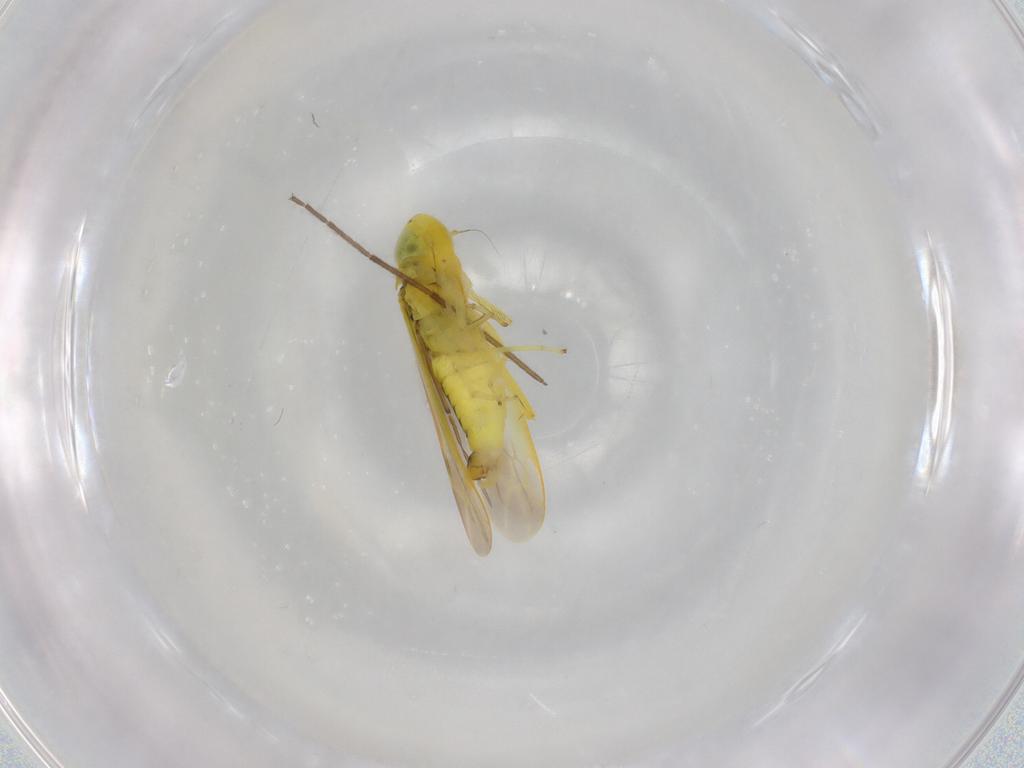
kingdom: Animalia
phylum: Arthropoda
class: Insecta
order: Hemiptera
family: Cicadellidae
